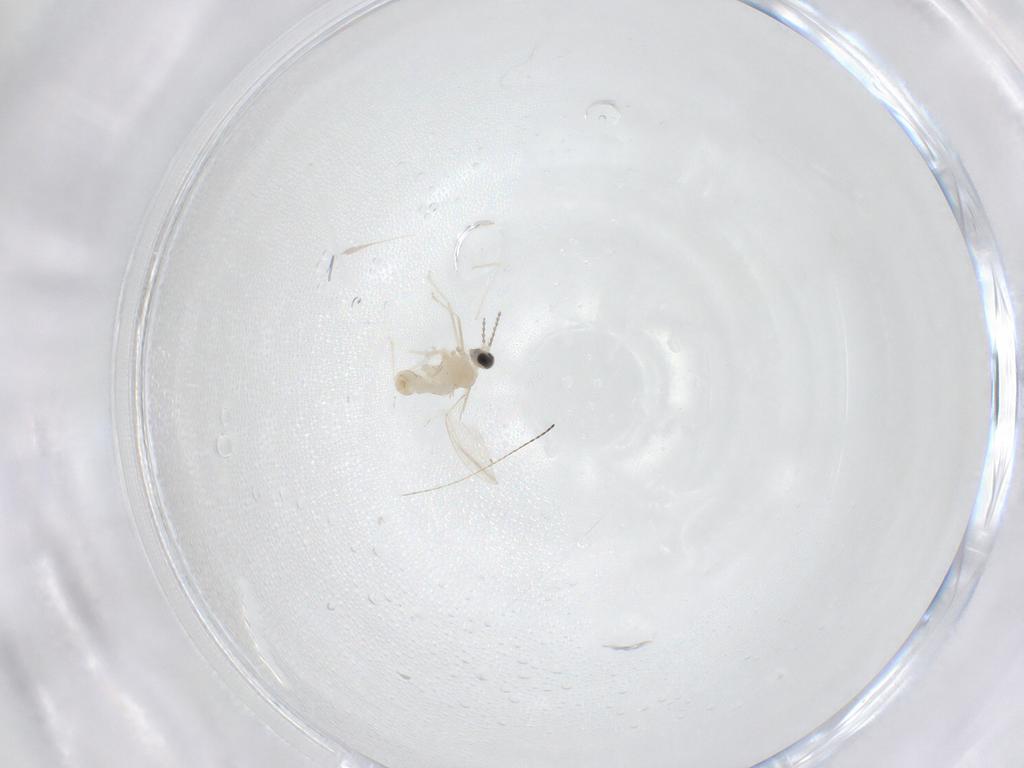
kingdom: Animalia
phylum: Arthropoda
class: Insecta
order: Diptera
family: Cecidomyiidae
